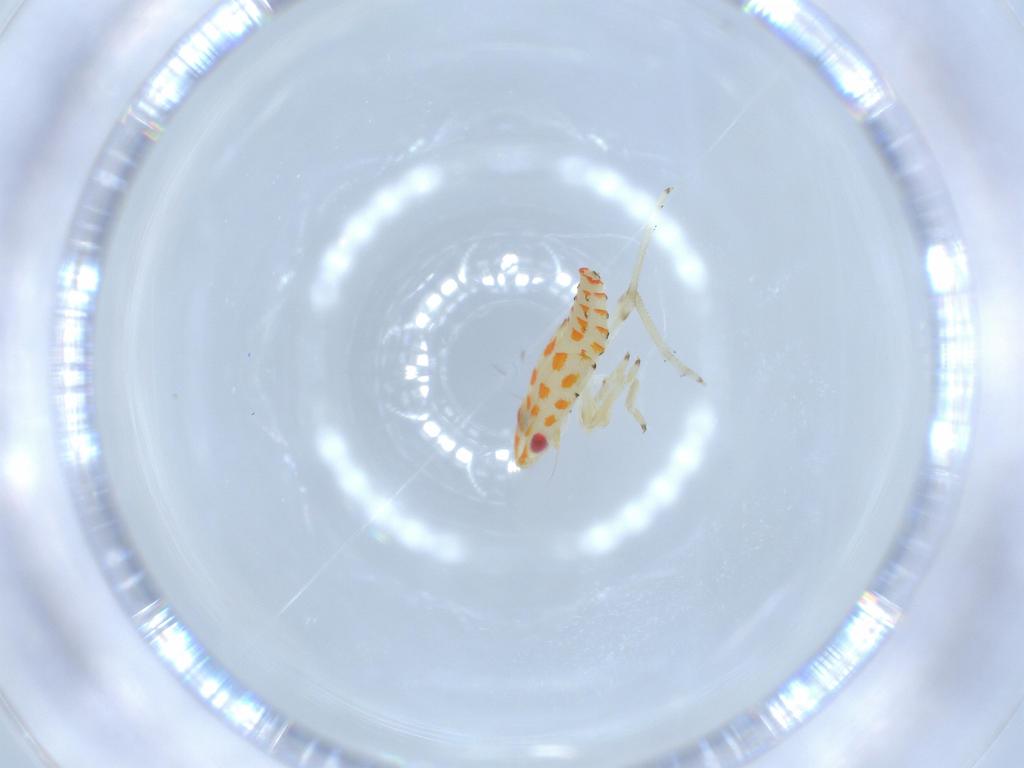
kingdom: Animalia
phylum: Arthropoda
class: Insecta
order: Hemiptera
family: Tropiduchidae
